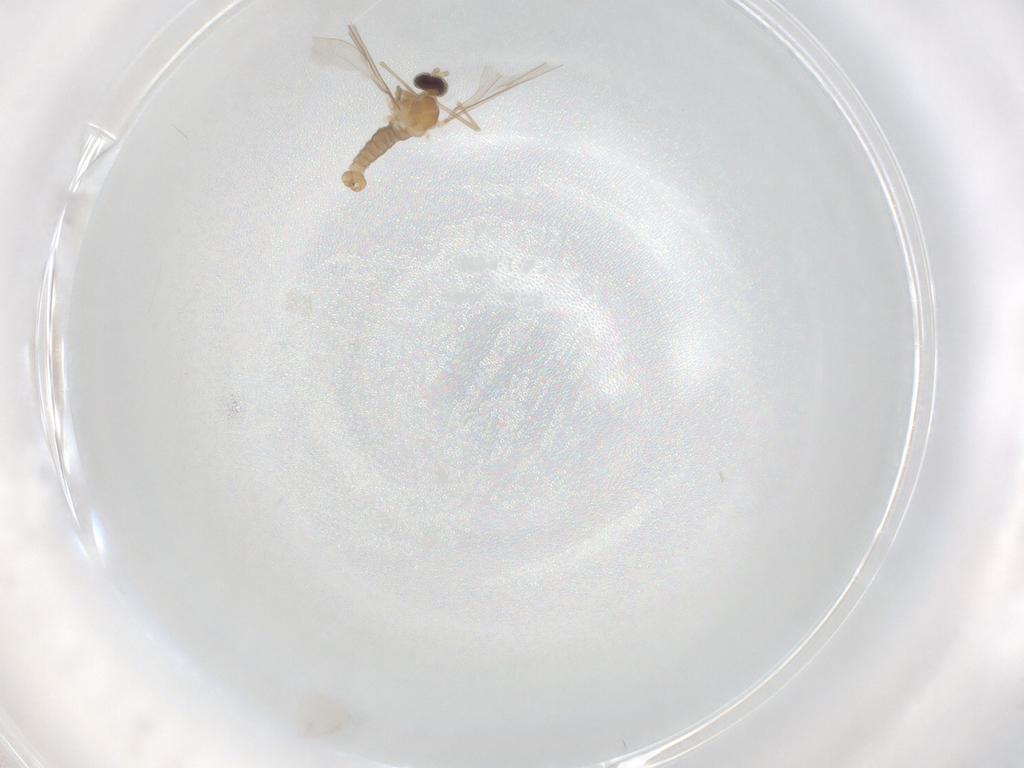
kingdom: Animalia
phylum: Arthropoda
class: Insecta
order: Diptera
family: Cecidomyiidae
